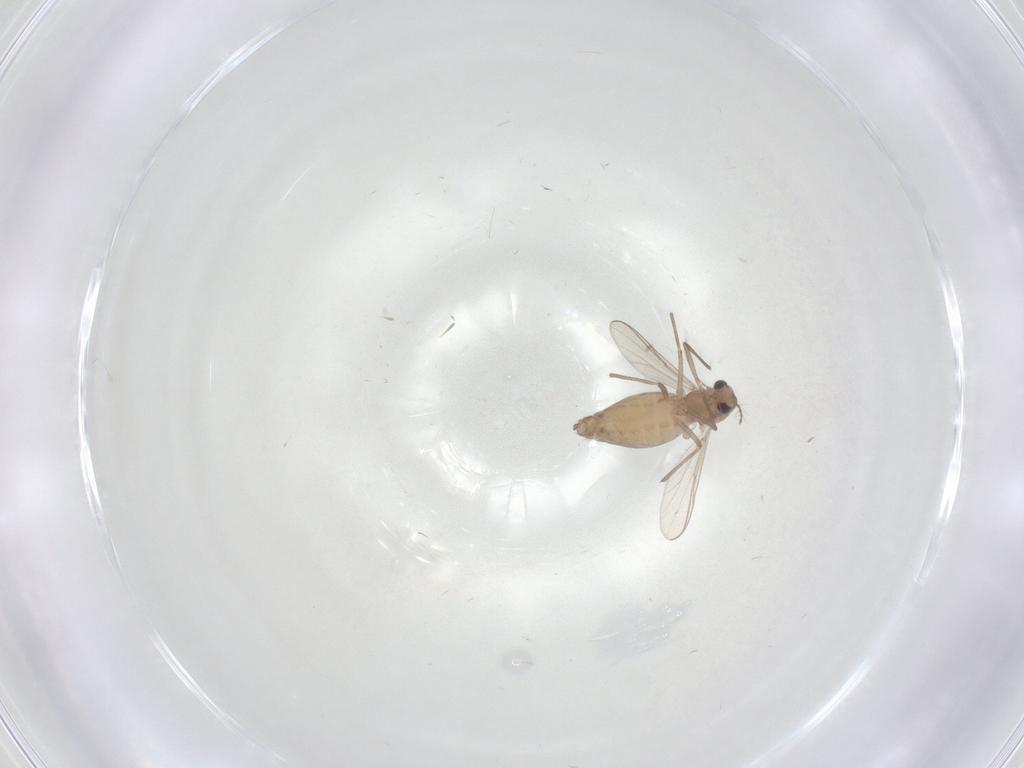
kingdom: Animalia
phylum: Arthropoda
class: Insecta
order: Diptera
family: Chironomidae
